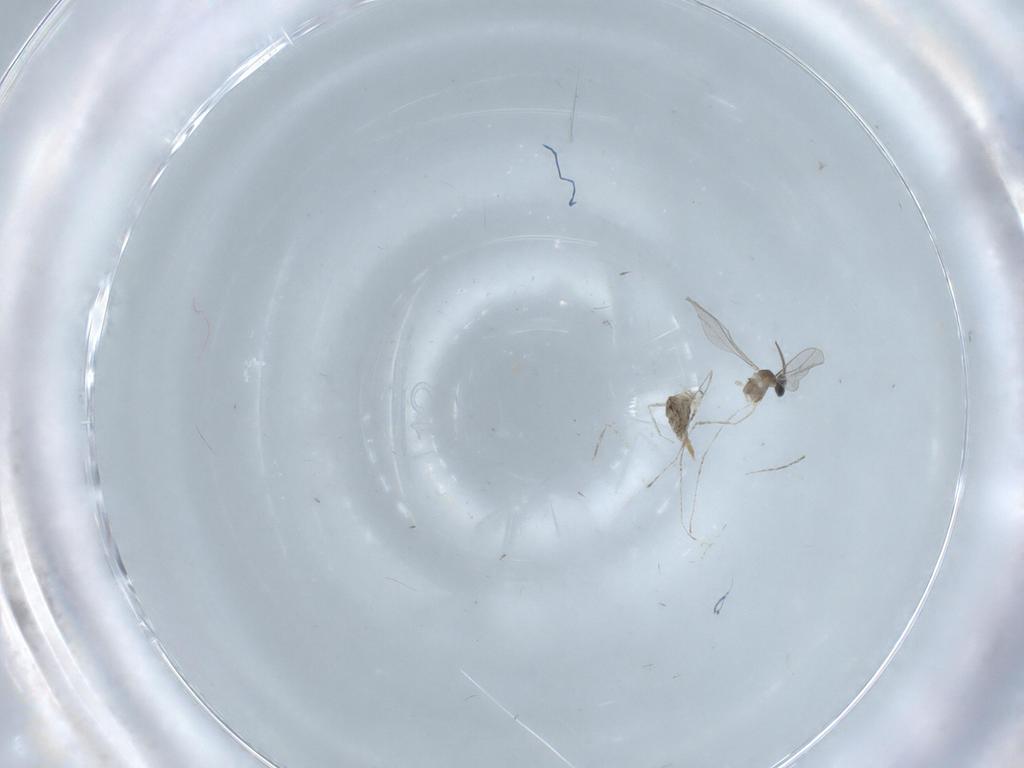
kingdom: Animalia
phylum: Arthropoda
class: Insecta
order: Diptera
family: Cecidomyiidae
